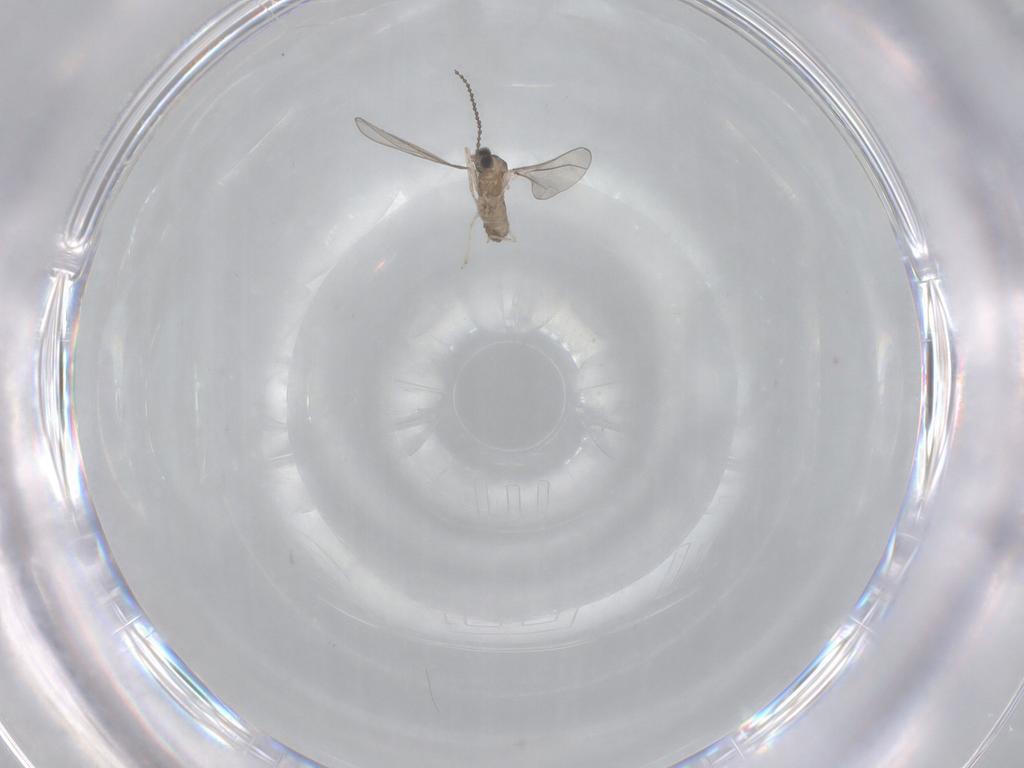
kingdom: Animalia
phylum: Arthropoda
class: Insecta
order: Diptera
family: Cecidomyiidae
